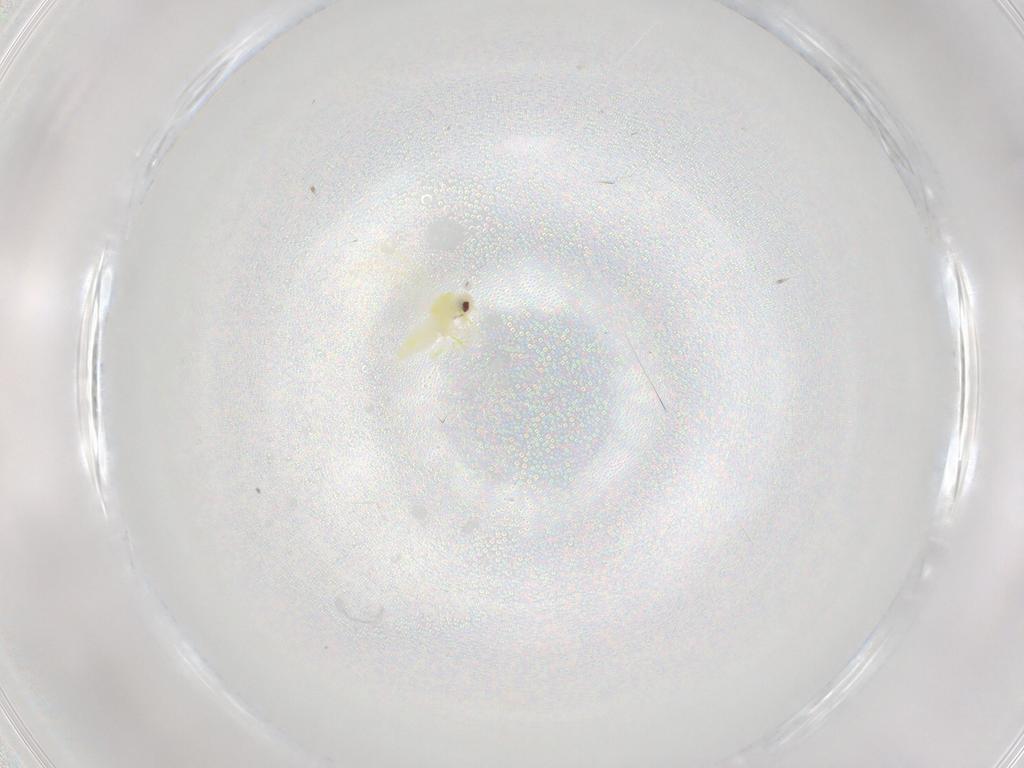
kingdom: Animalia
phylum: Arthropoda
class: Insecta
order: Hemiptera
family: Aleyrodidae
